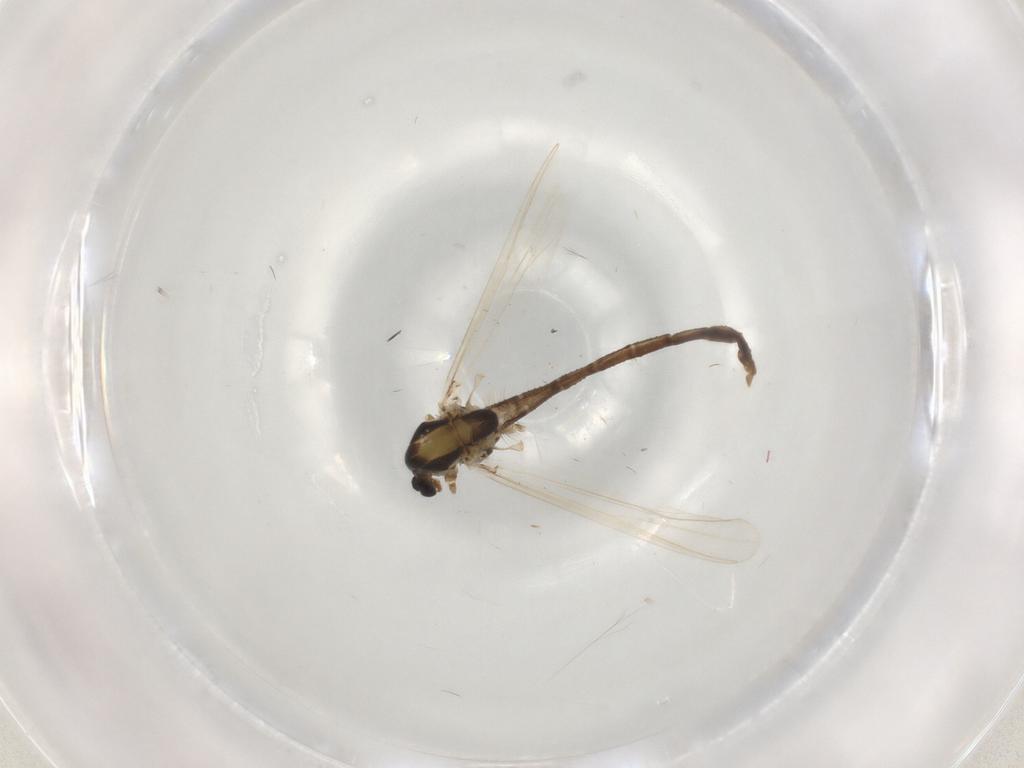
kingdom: Animalia
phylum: Arthropoda
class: Insecta
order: Diptera
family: Chironomidae
